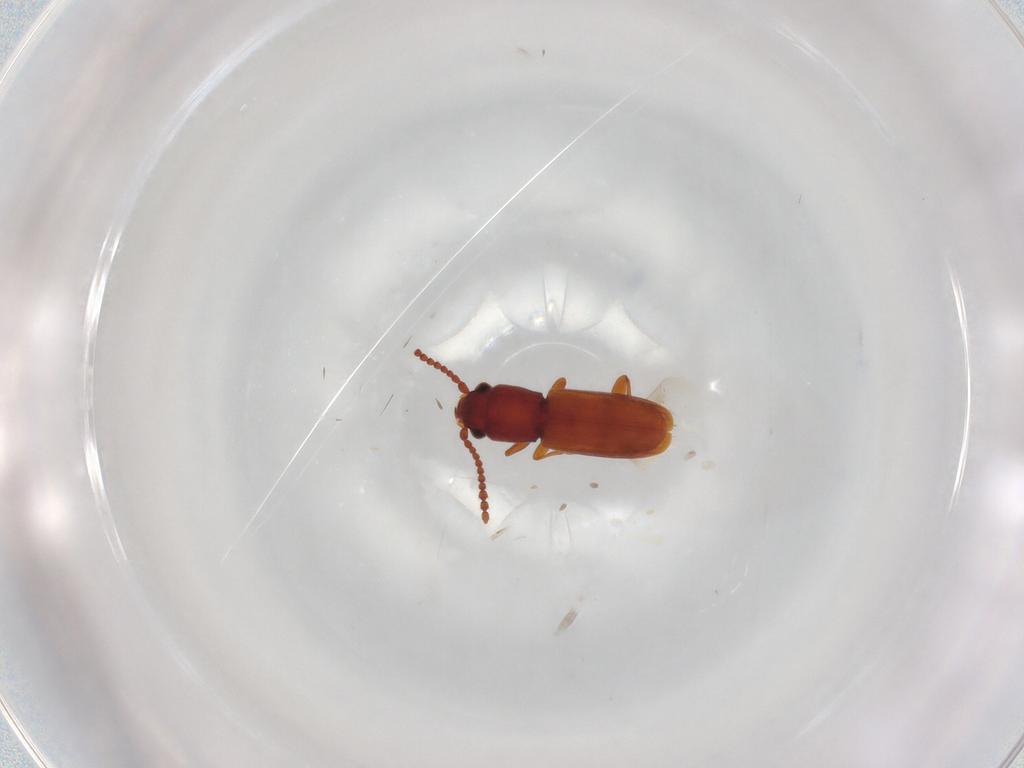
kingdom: Animalia
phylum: Arthropoda
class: Insecta
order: Coleoptera
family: Laemophloeidae
